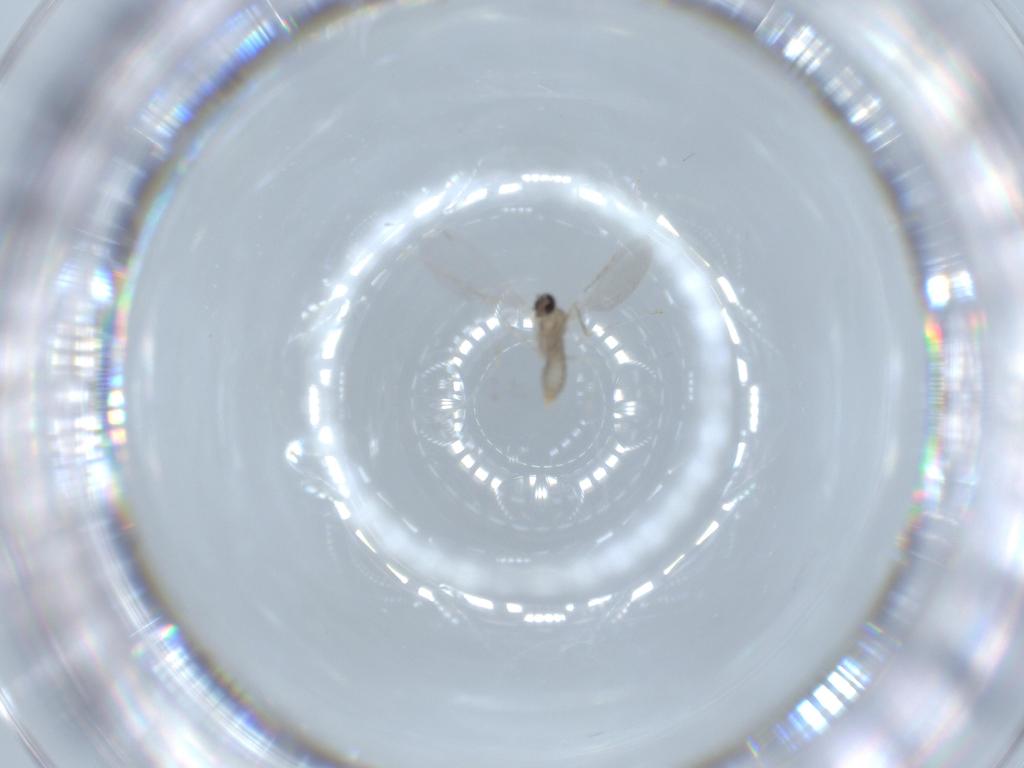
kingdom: Animalia
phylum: Arthropoda
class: Insecta
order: Diptera
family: Cecidomyiidae
